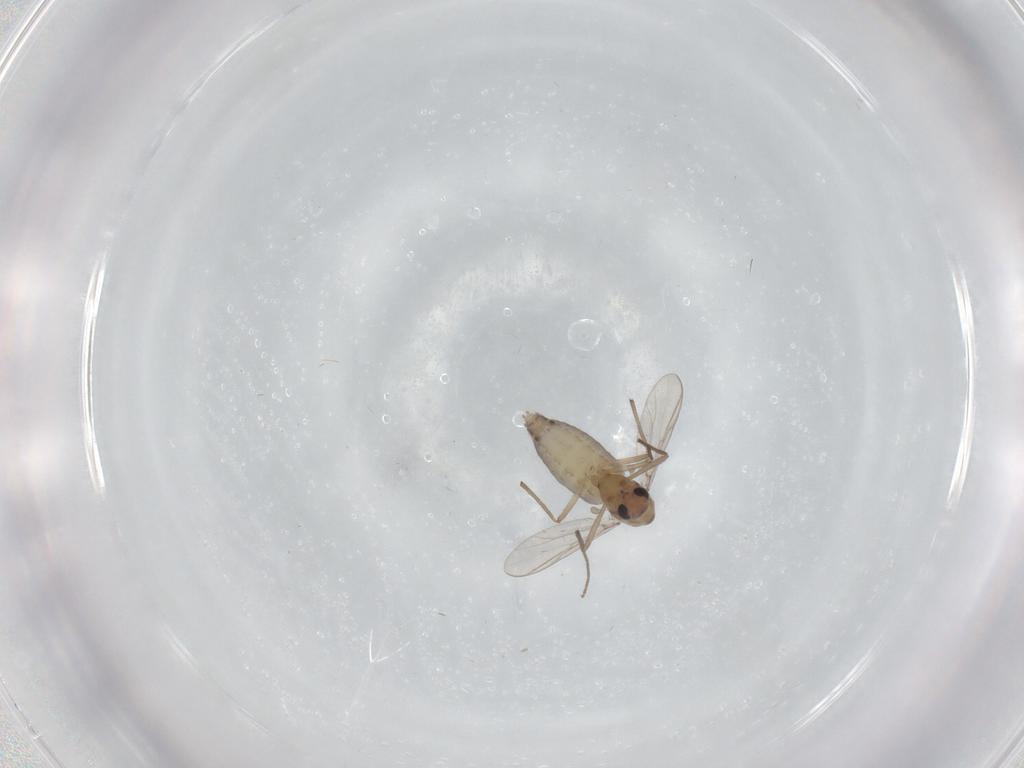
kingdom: Animalia
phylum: Arthropoda
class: Insecta
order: Diptera
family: Chironomidae
